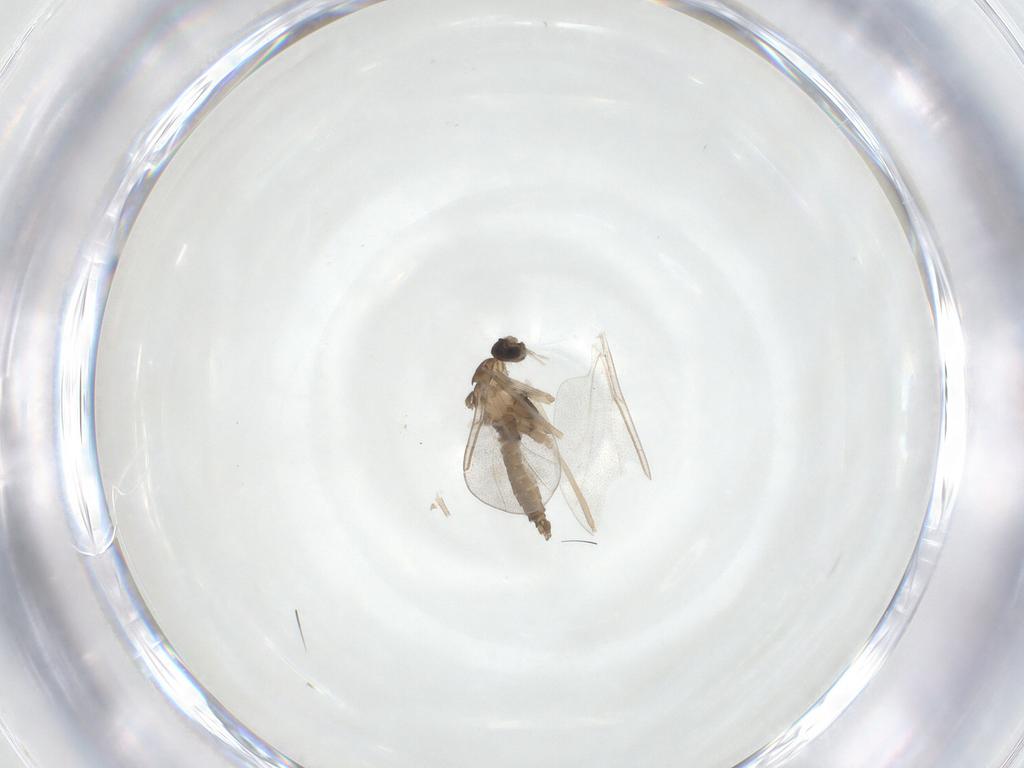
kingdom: Animalia
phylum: Arthropoda
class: Insecta
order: Diptera
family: Cecidomyiidae
